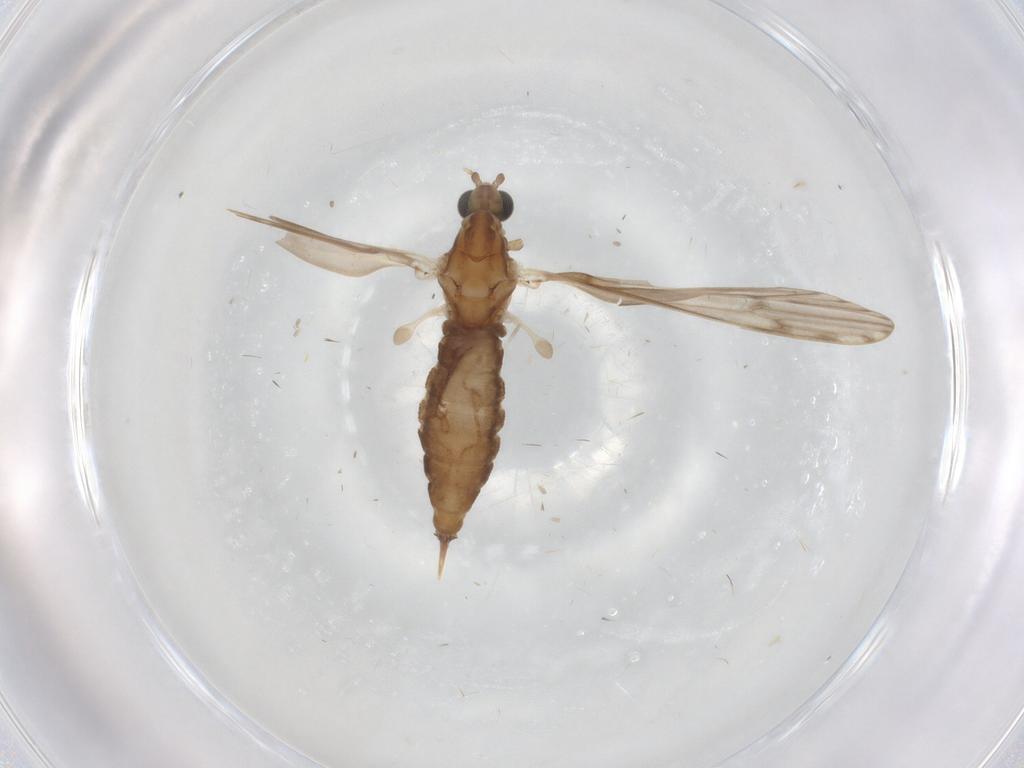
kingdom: Animalia
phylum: Arthropoda
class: Insecta
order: Diptera
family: Limoniidae
